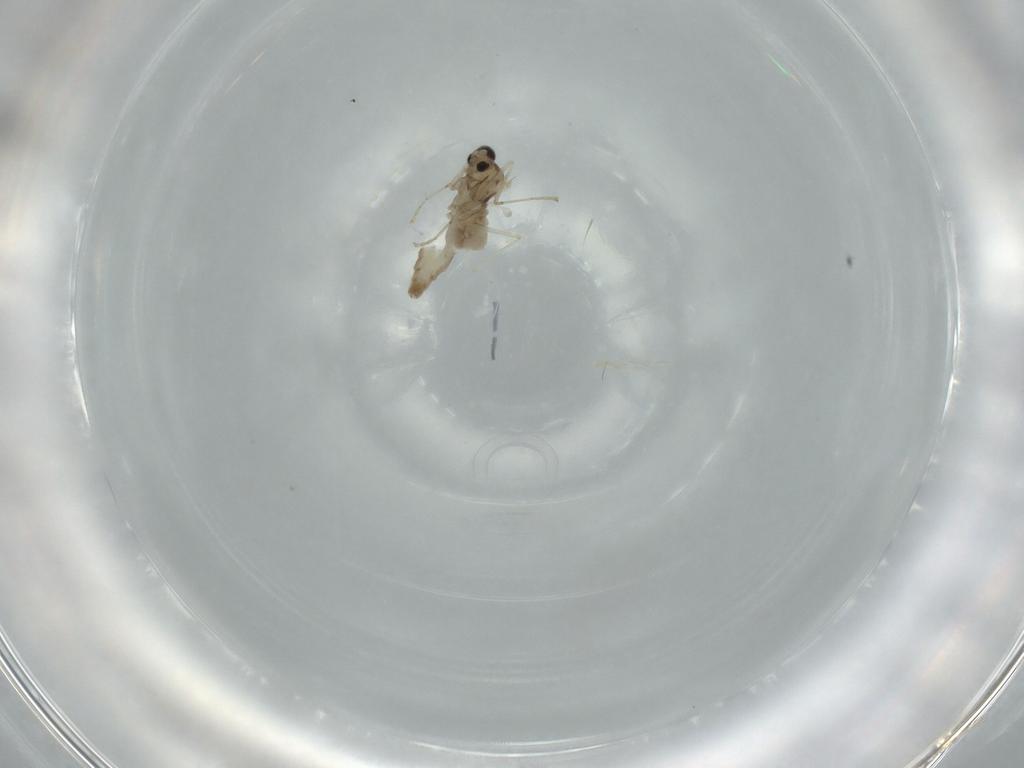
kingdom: Animalia
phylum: Arthropoda
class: Insecta
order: Diptera
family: Cecidomyiidae
